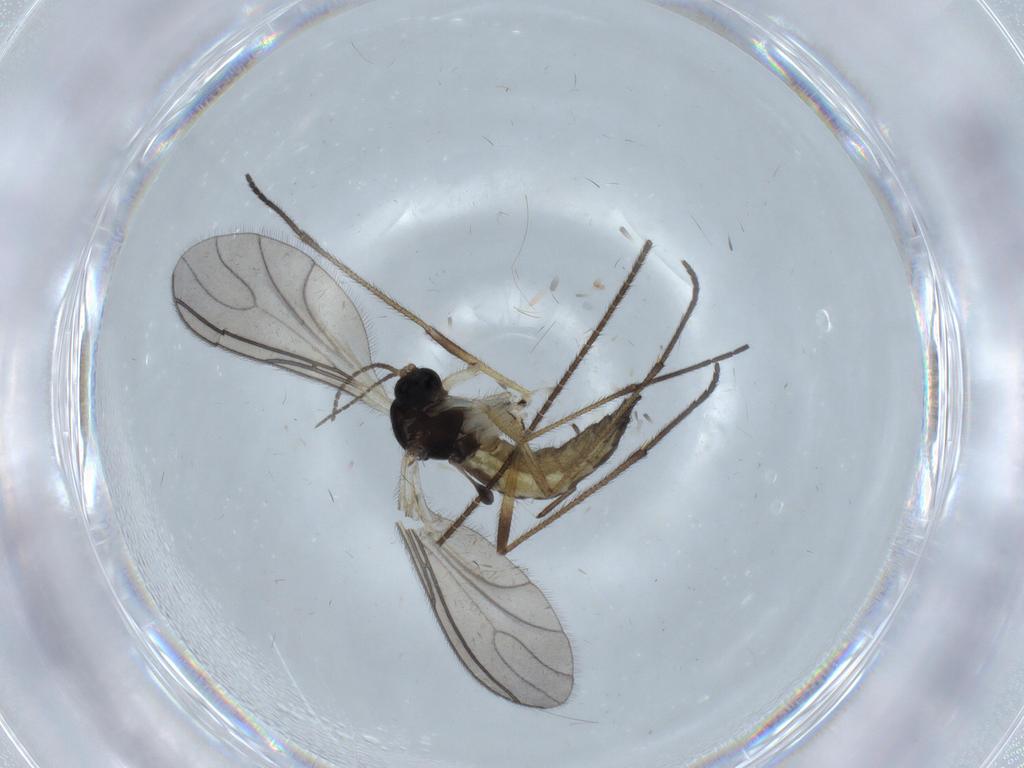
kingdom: Animalia
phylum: Arthropoda
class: Insecta
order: Diptera
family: Sciaridae
